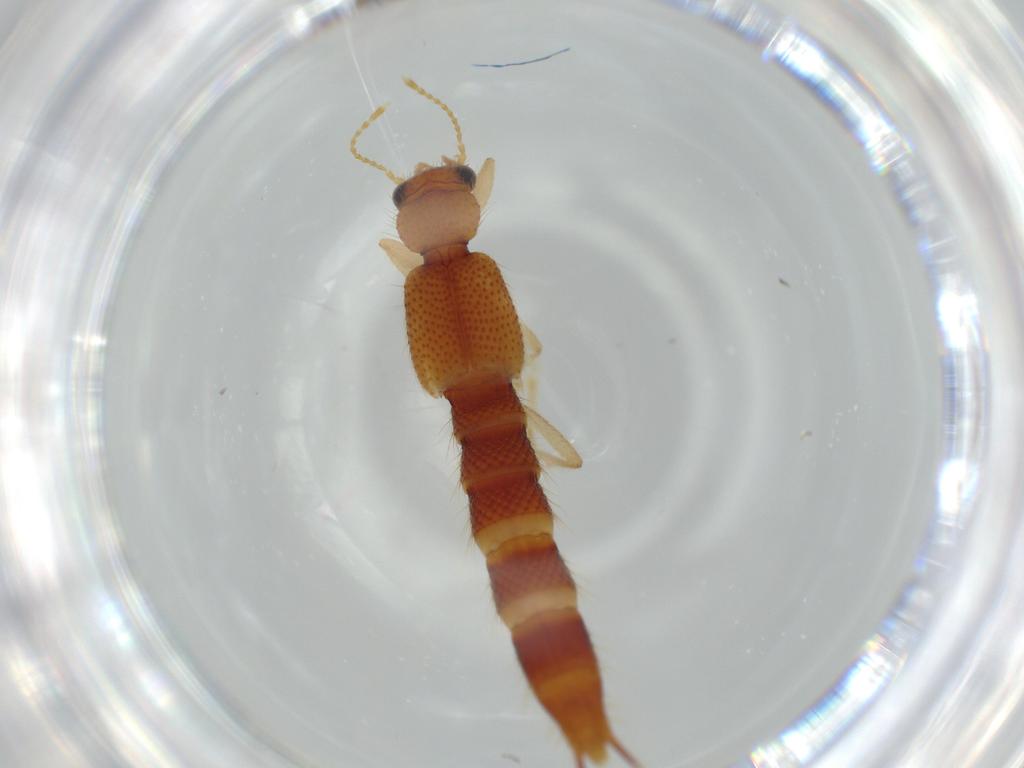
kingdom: Animalia
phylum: Arthropoda
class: Insecta
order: Coleoptera
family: Staphylinidae
